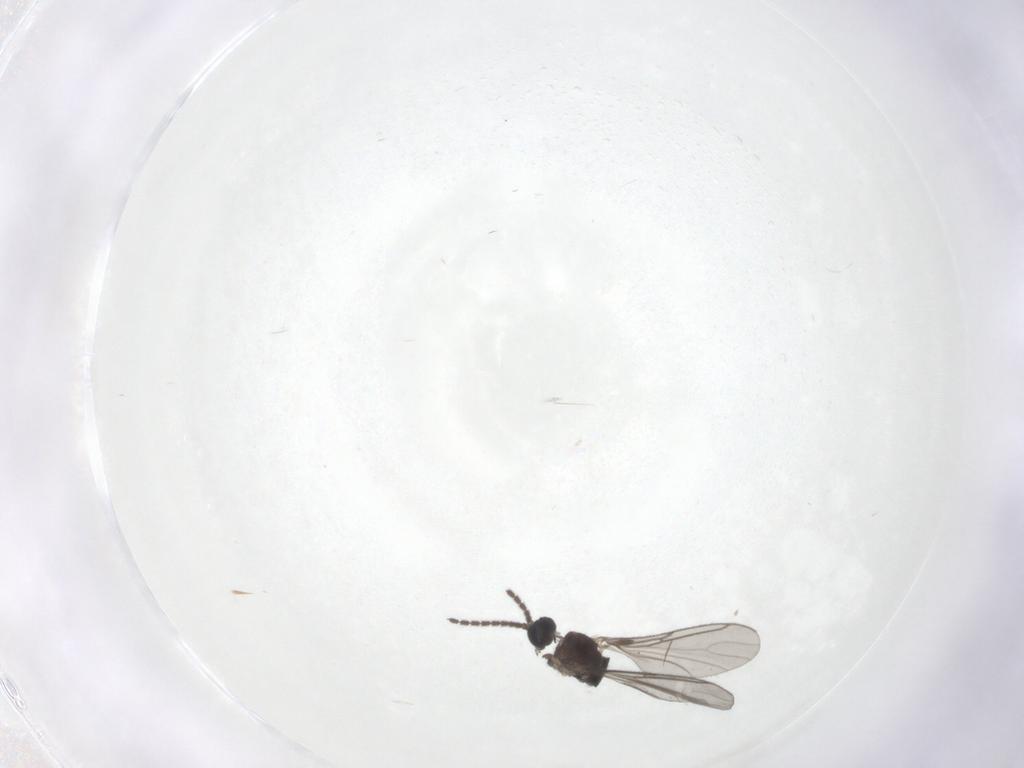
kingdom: Animalia
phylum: Arthropoda
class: Insecta
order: Diptera
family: Sciaridae
